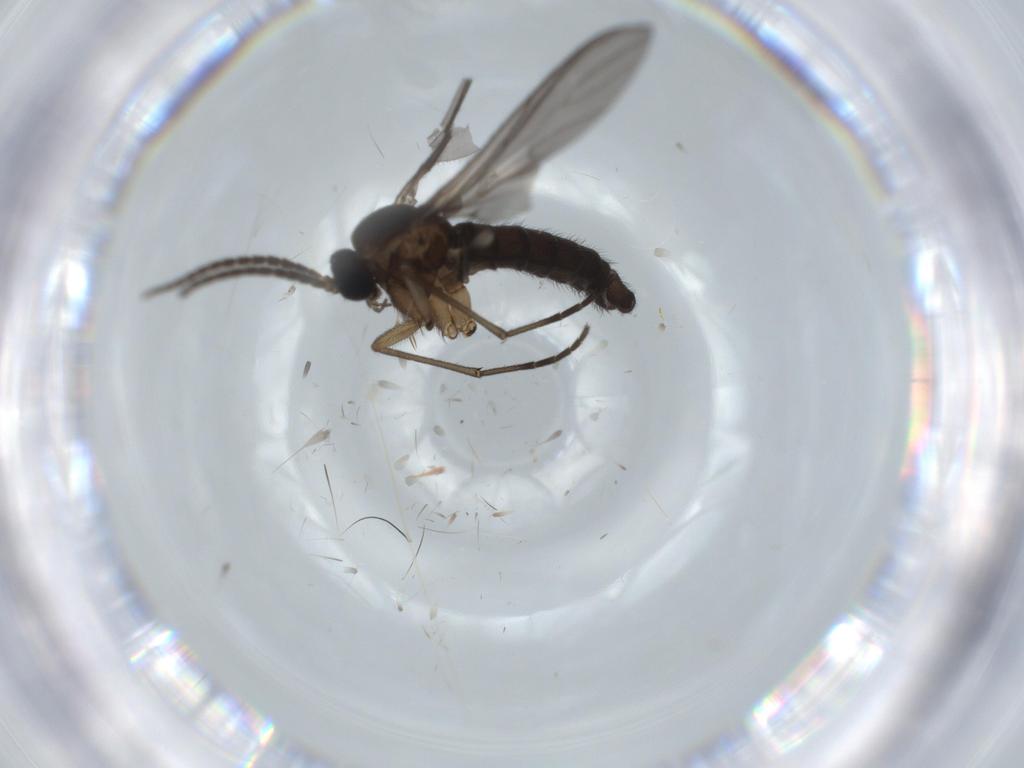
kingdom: Animalia
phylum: Arthropoda
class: Insecta
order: Diptera
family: Sciaridae
